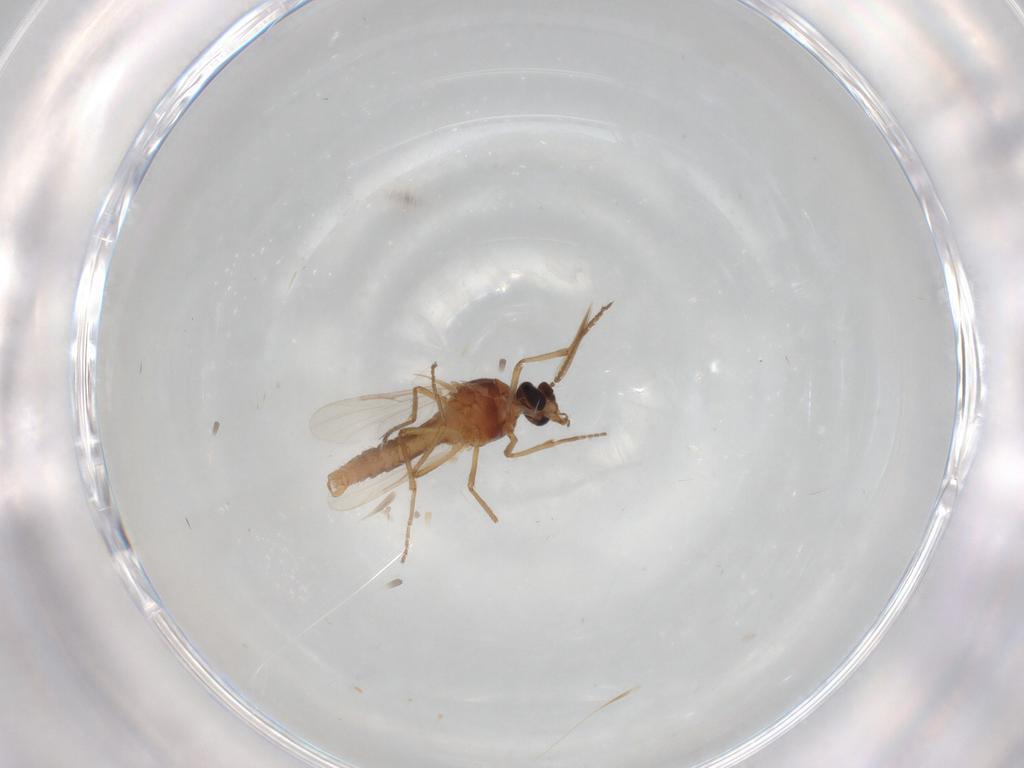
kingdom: Animalia
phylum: Arthropoda
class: Insecta
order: Diptera
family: Ceratopogonidae
